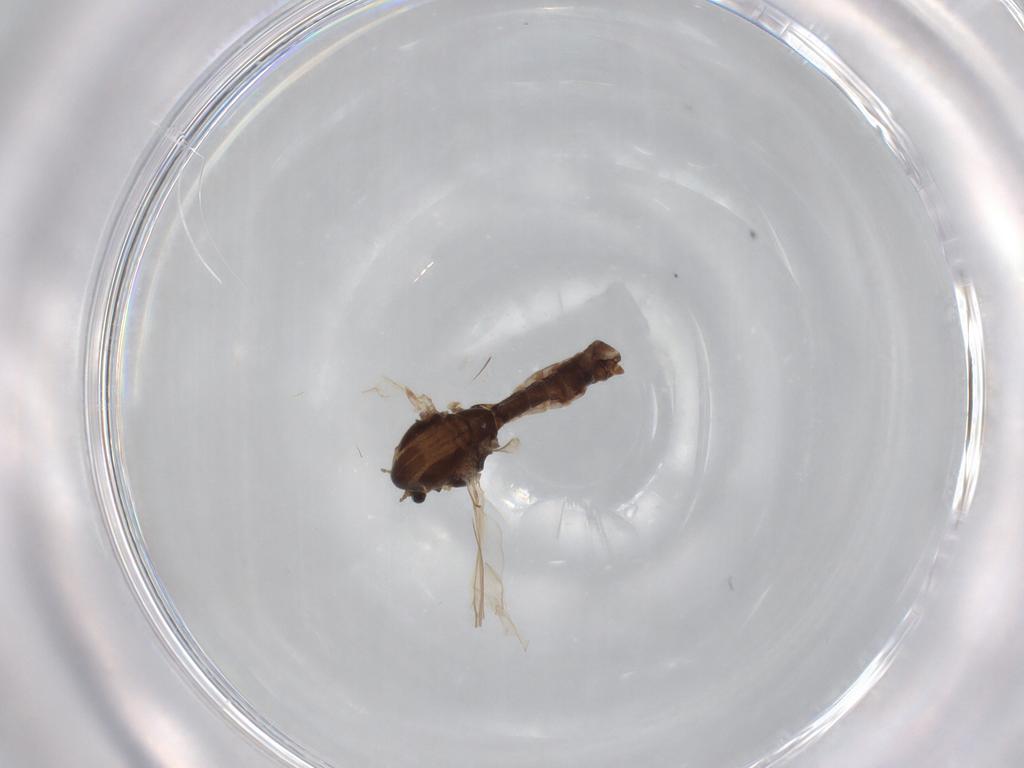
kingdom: Animalia
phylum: Arthropoda
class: Insecta
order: Diptera
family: Chironomidae
